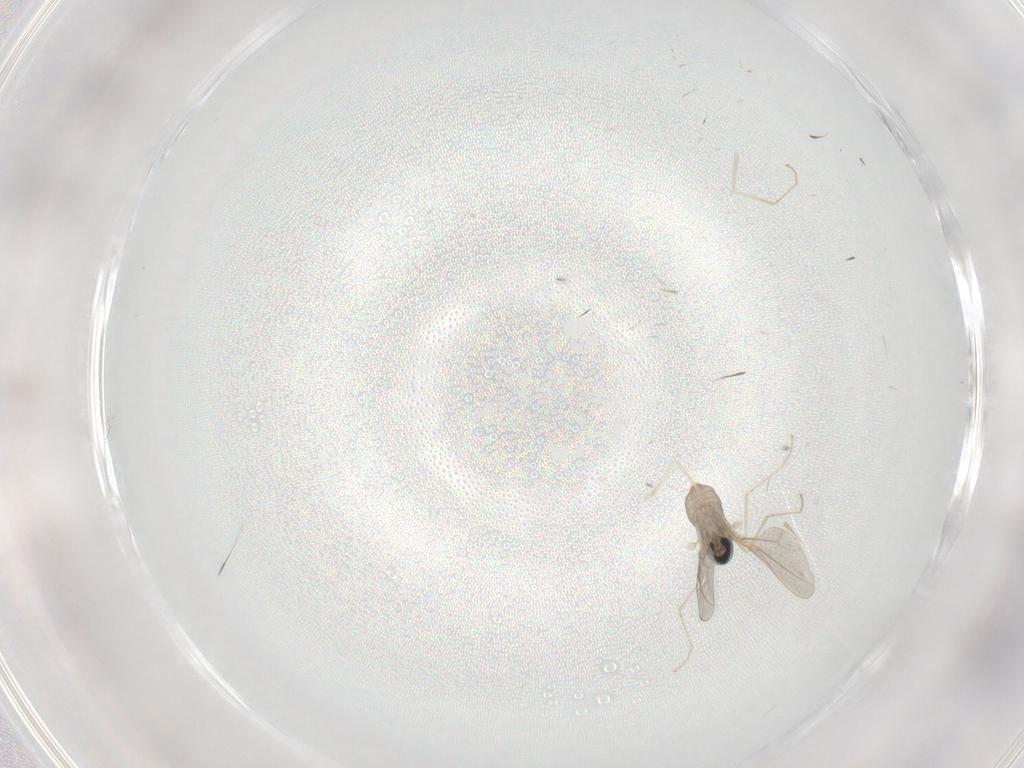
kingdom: Animalia
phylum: Arthropoda
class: Insecta
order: Diptera
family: Cecidomyiidae
